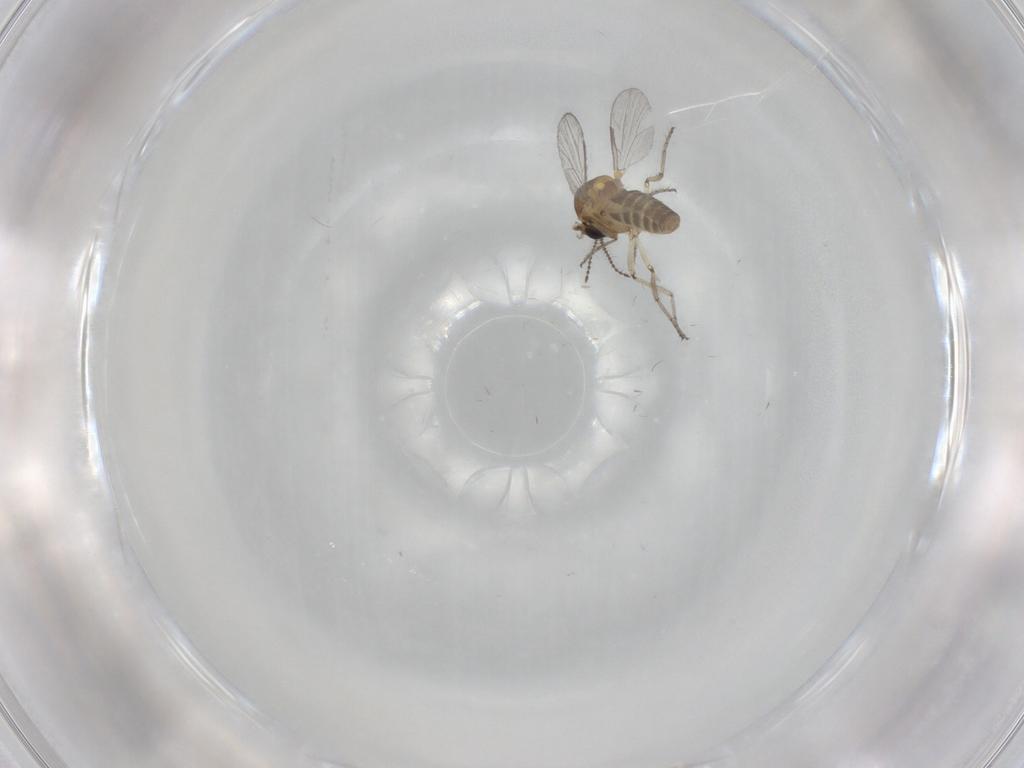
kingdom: Animalia
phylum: Arthropoda
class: Insecta
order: Diptera
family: Ceratopogonidae
